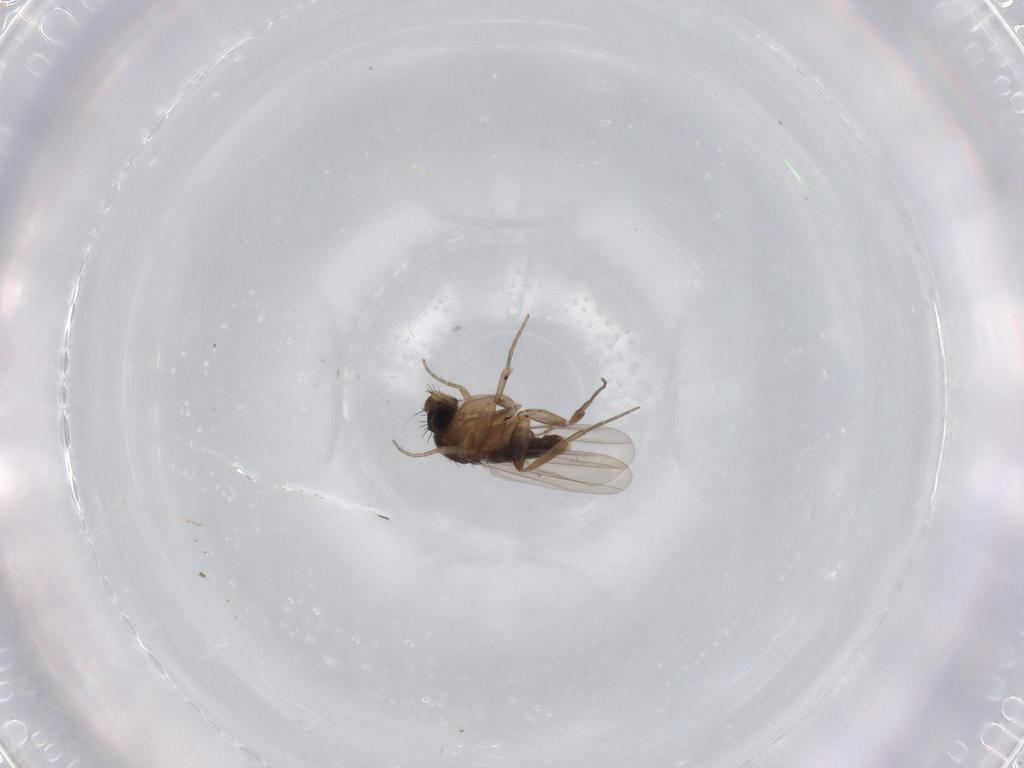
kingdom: Animalia
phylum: Arthropoda
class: Insecta
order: Diptera
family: Phoridae
